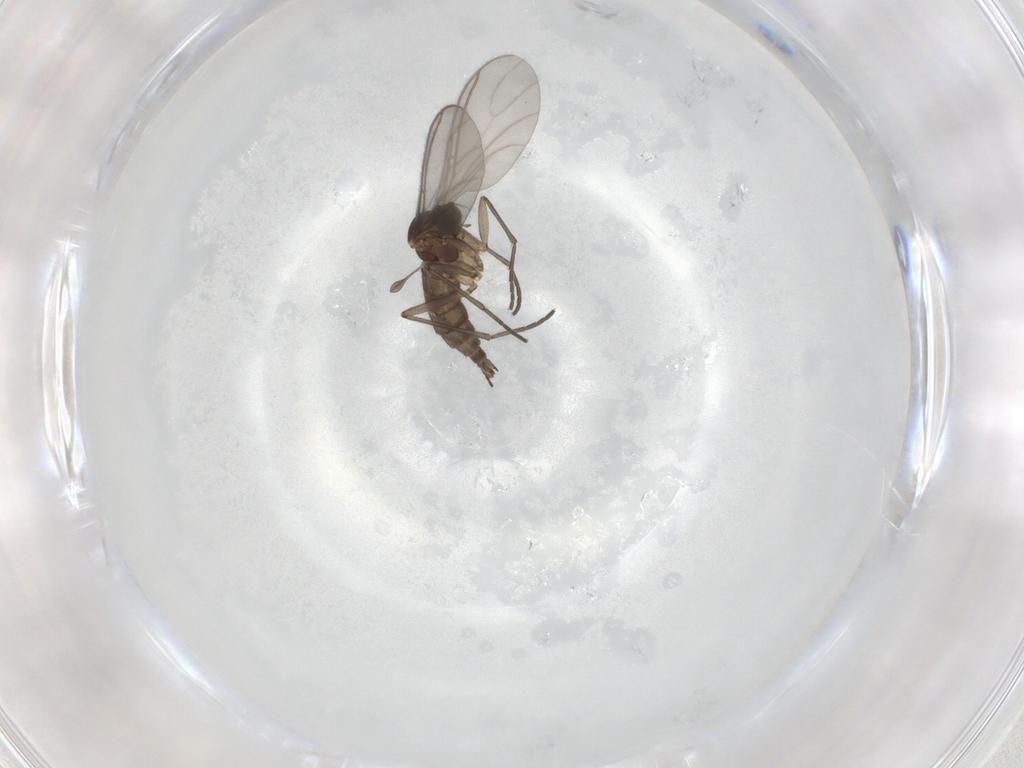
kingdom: Animalia
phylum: Arthropoda
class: Insecta
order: Diptera
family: Cecidomyiidae
